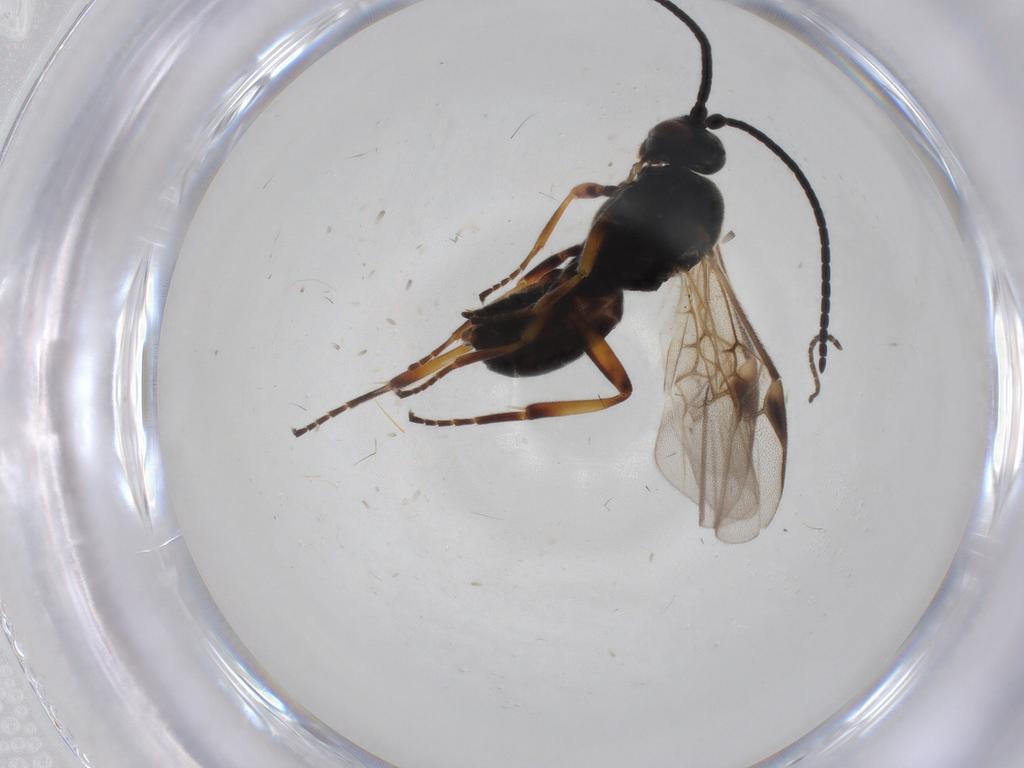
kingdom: Animalia
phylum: Arthropoda
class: Insecta
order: Hymenoptera
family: Braconidae
